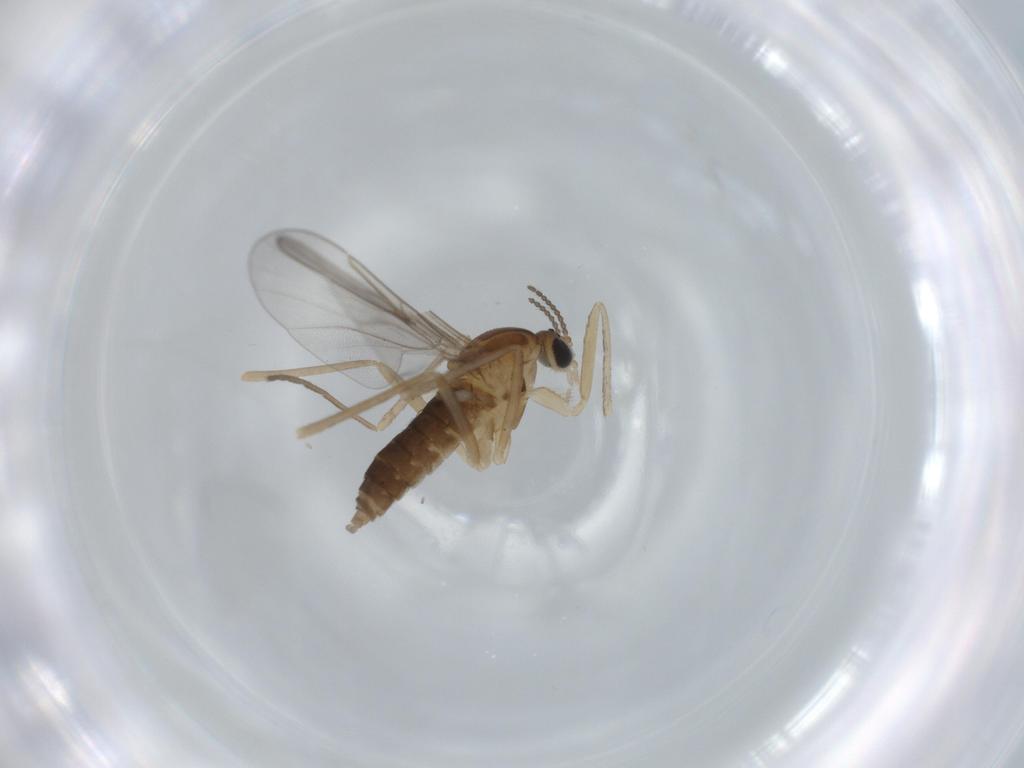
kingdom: Animalia
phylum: Arthropoda
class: Insecta
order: Diptera
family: Cecidomyiidae
